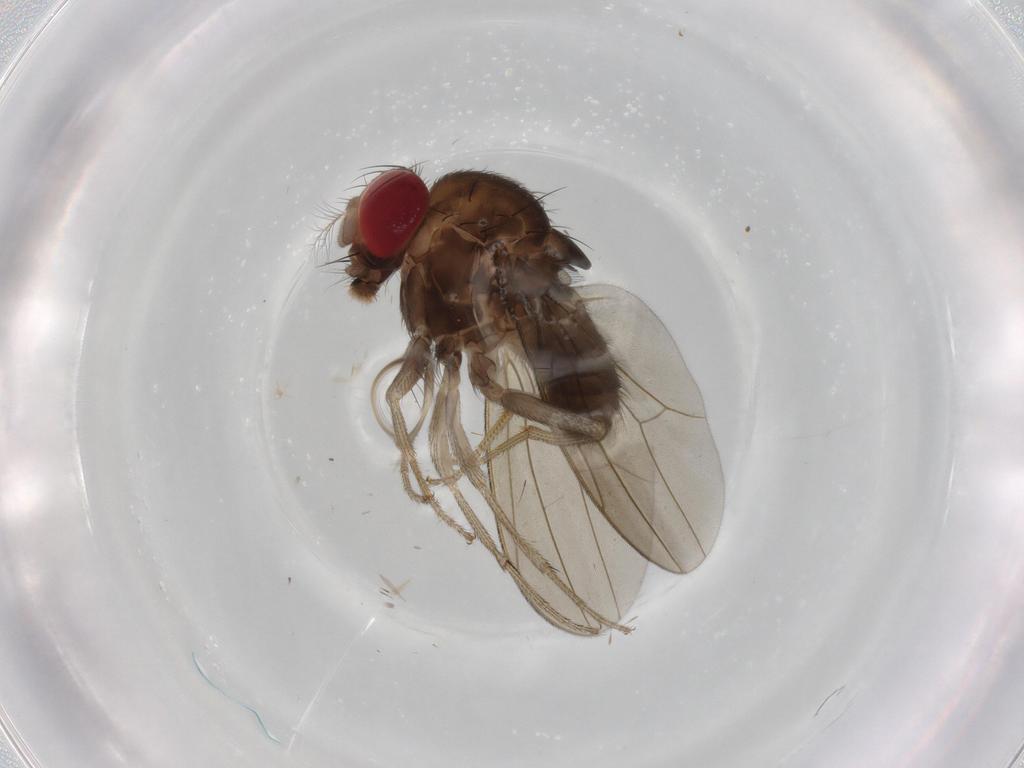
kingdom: Animalia
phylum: Arthropoda
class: Insecta
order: Diptera
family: Drosophilidae
